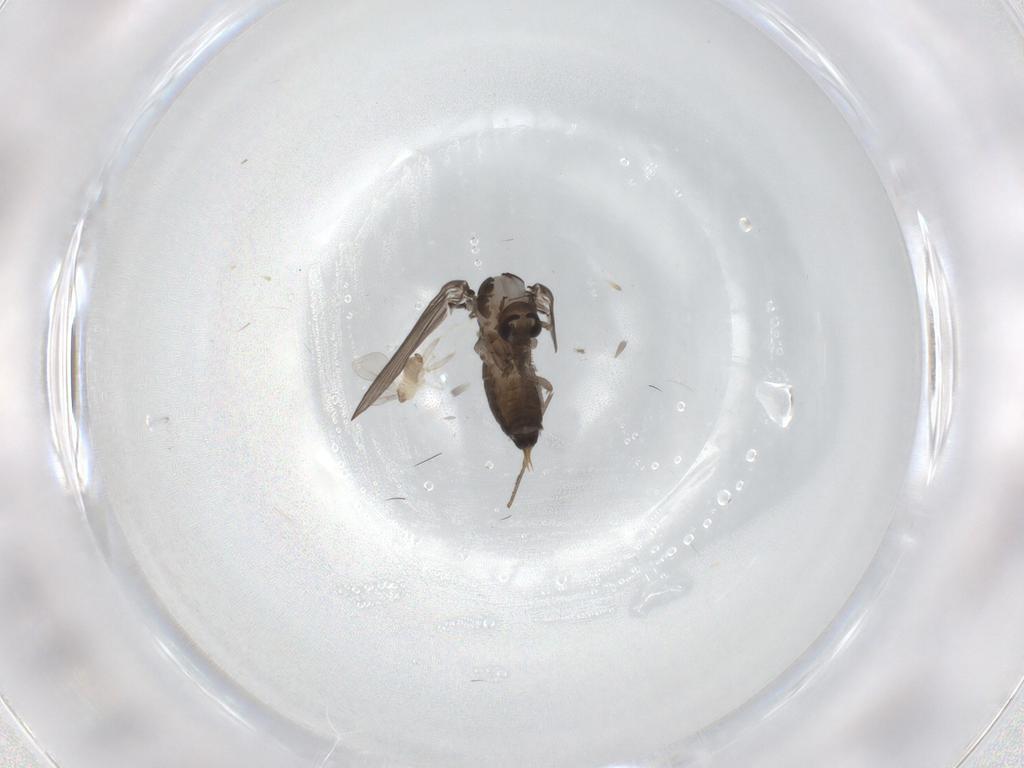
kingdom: Animalia
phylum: Arthropoda
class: Insecta
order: Diptera
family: Psychodidae
